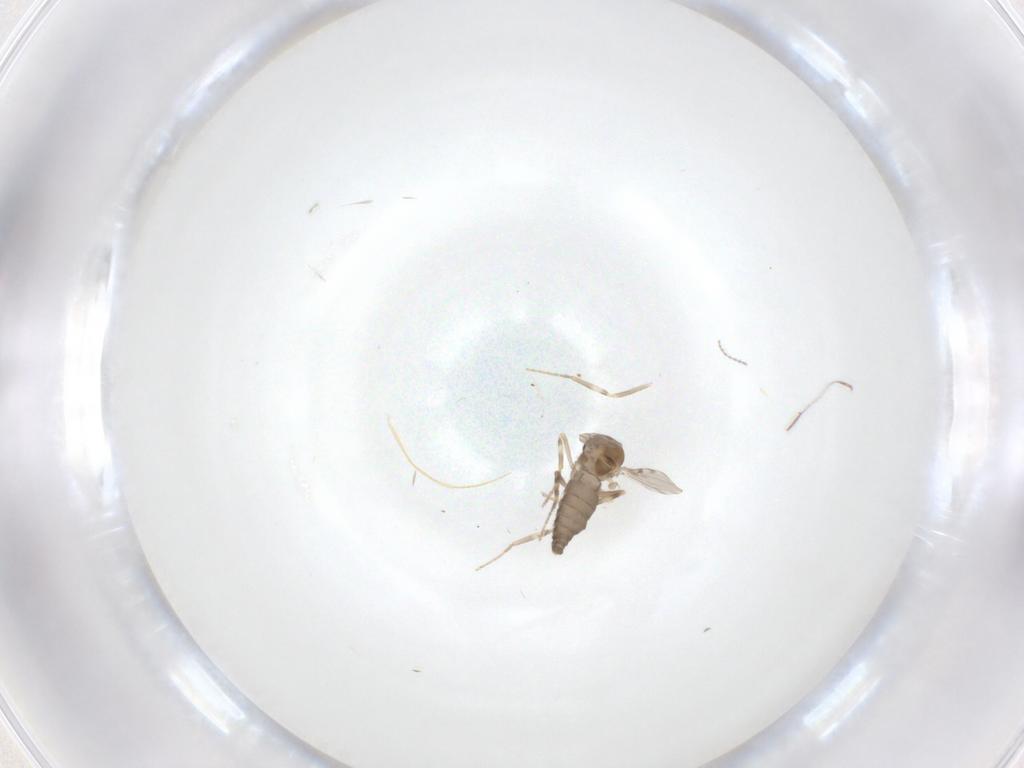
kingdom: Animalia
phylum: Arthropoda
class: Insecta
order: Diptera
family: Ceratopogonidae
